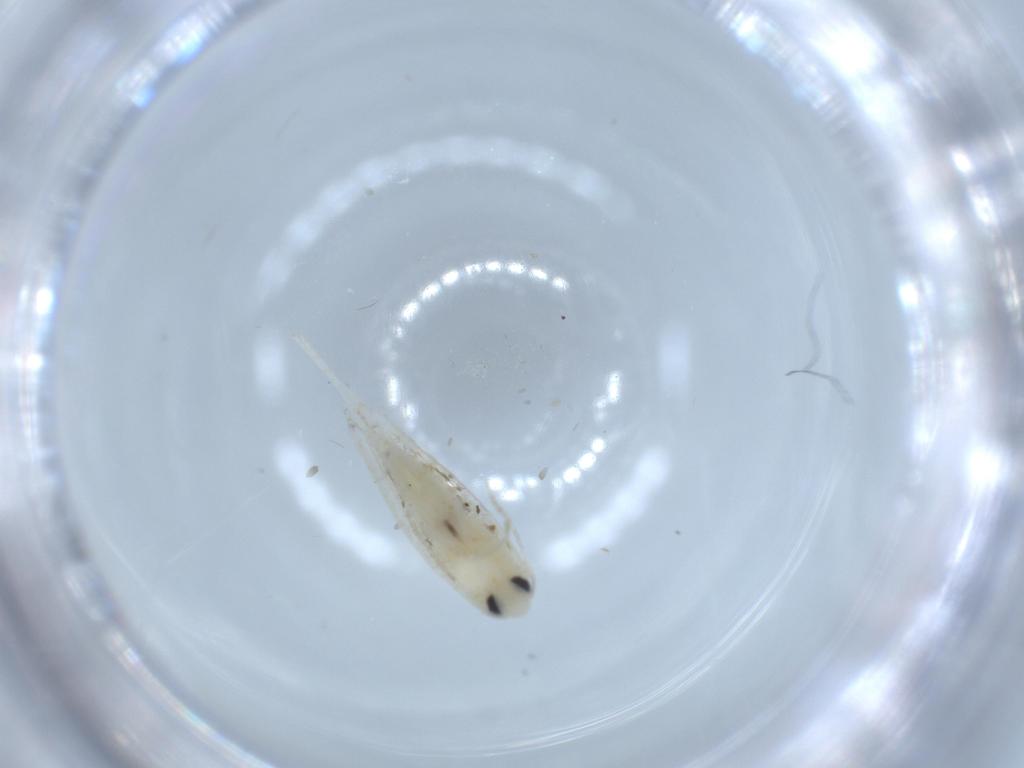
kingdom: Animalia
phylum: Arthropoda
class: Insecta
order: Lepidoptera
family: Lyonetiidae
